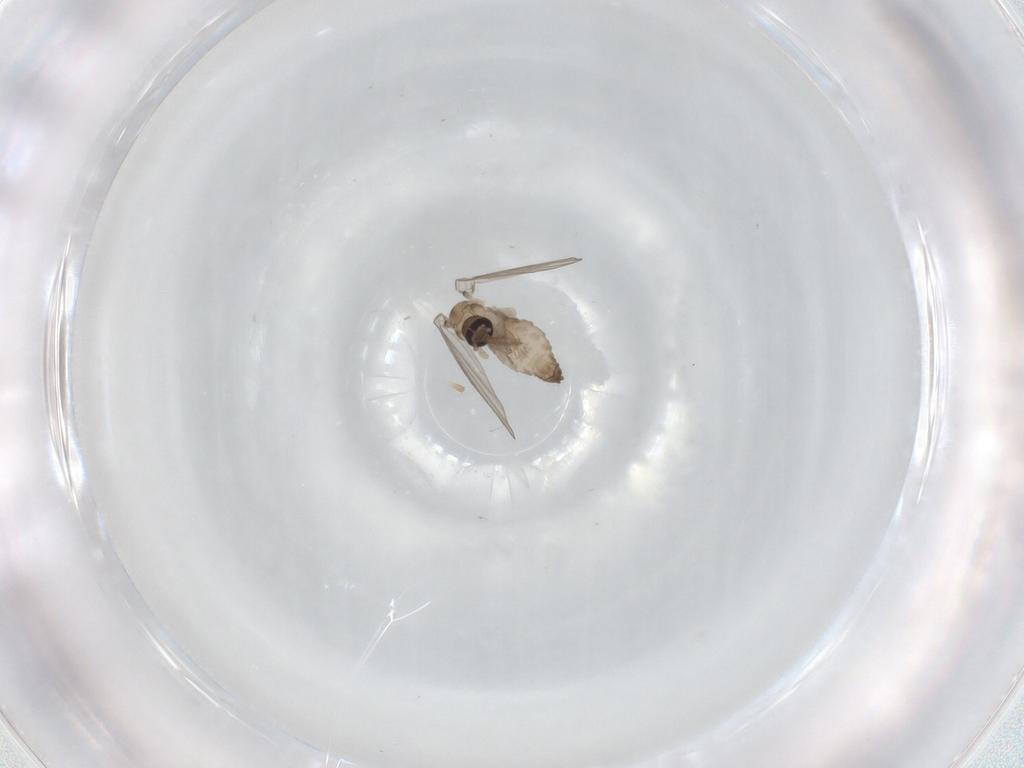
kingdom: Animalia
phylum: Arthropoda
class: Insecta
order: Diptera
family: Psychodidae
